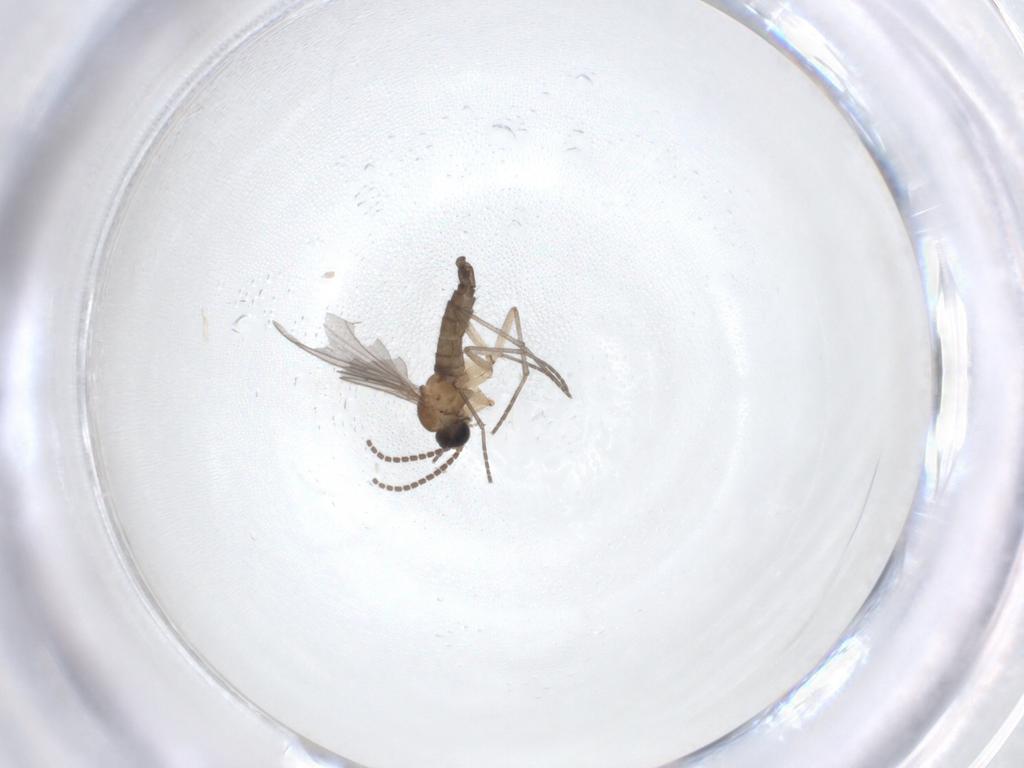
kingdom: Animalia
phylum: Arthropoda
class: Insecta
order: Diptera
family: Sciaridae
